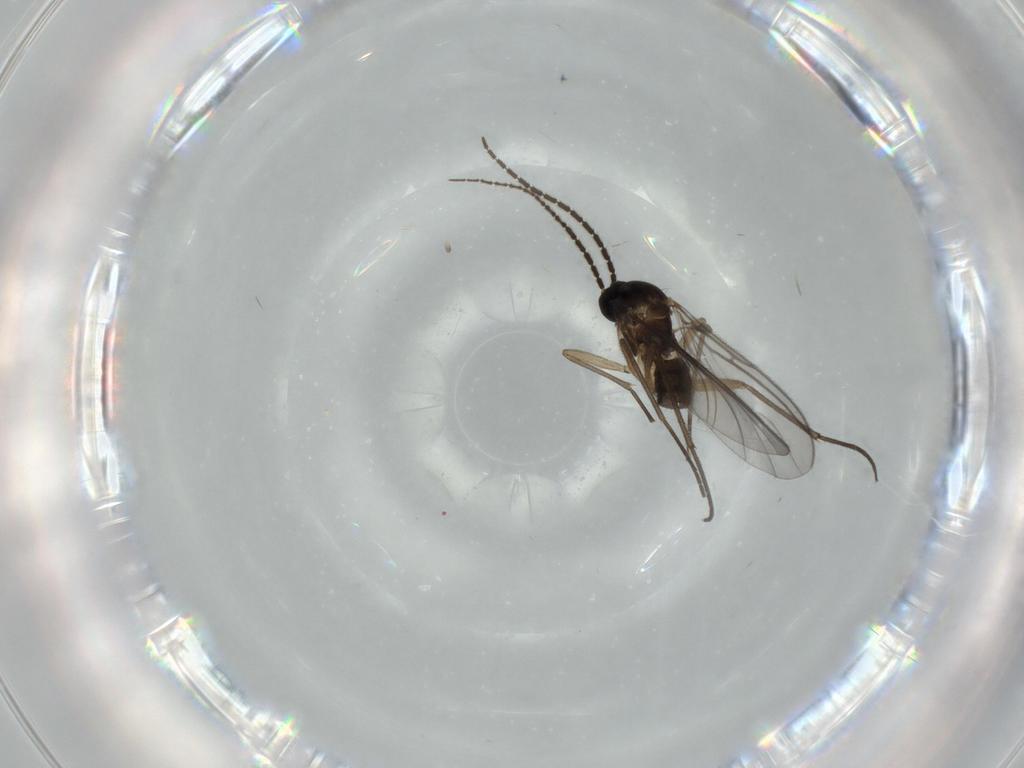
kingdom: Animalia
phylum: Arthropoda
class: Insecta
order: Diptera
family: Sciaridae
